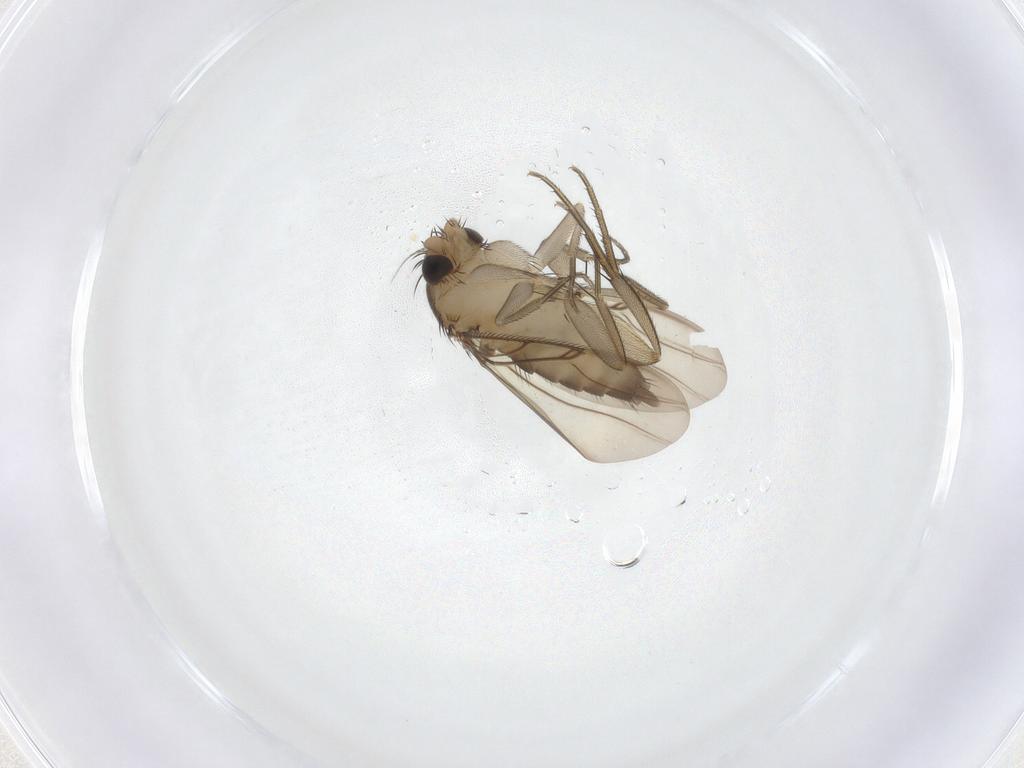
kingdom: Animalia
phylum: Arthropoda
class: Insecta
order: Diptera
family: Phoridae
